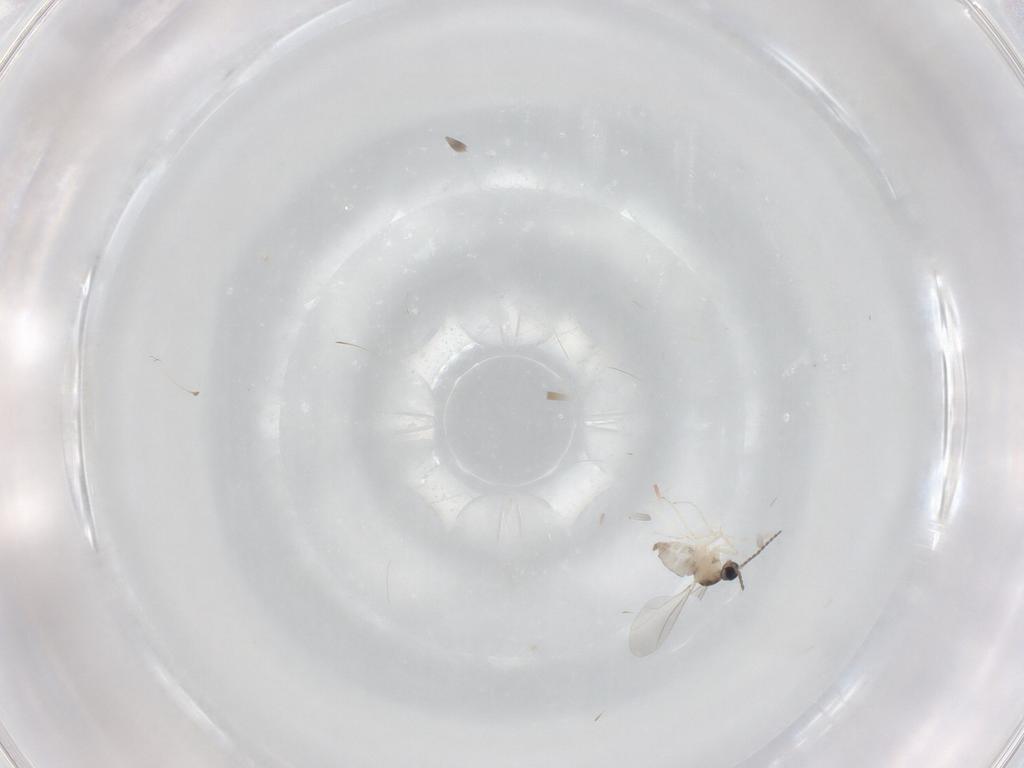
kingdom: Animalia
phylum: Arthropoda
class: Insecta
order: Diptera
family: Cecidomyiidae
